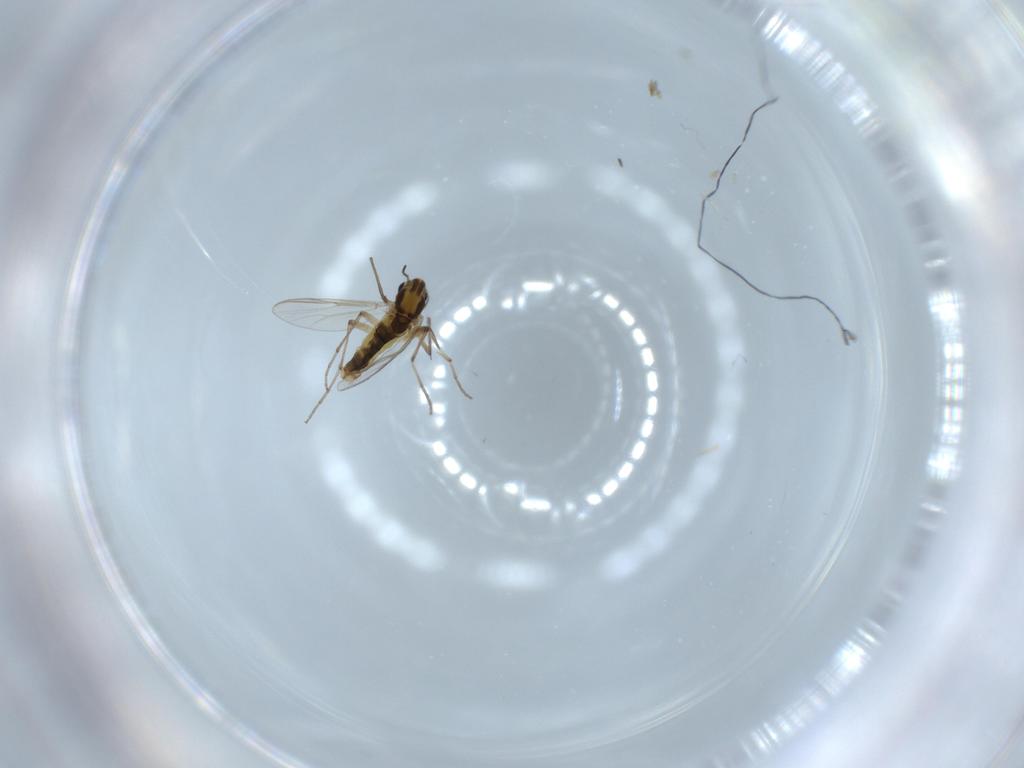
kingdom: Animalia
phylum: Arthropoda
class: Insecta
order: Diptera
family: Chironomidae
